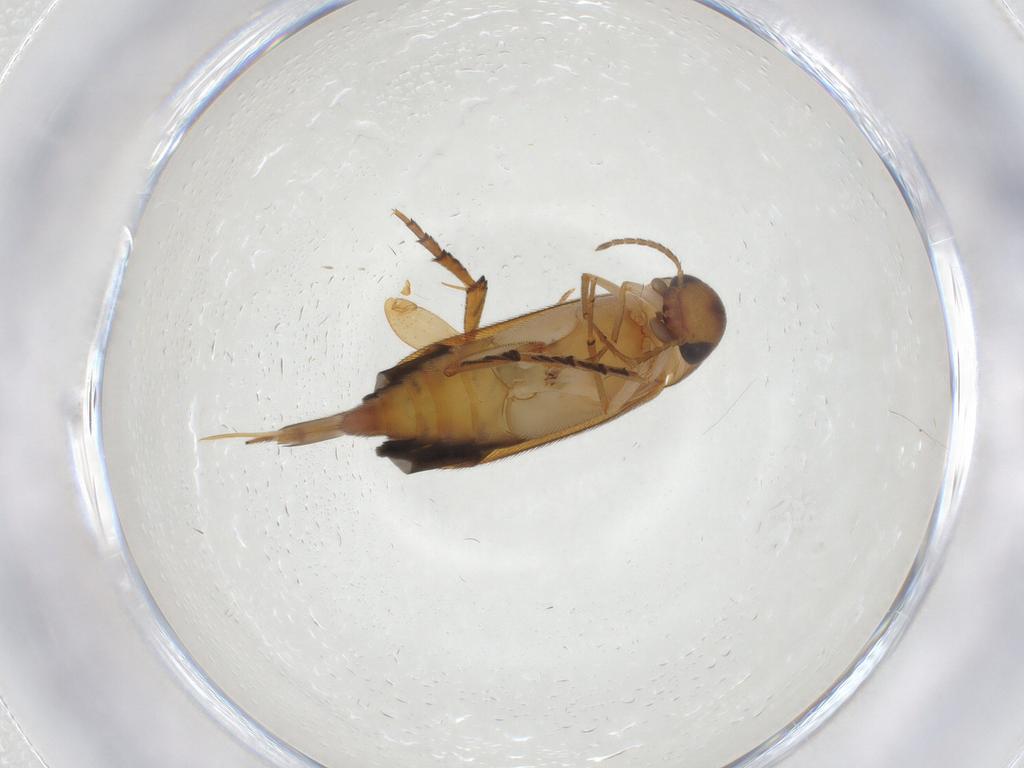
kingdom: Animalia
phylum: Arthropoda
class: Insecta
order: Coleoptera
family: Mordellidae
